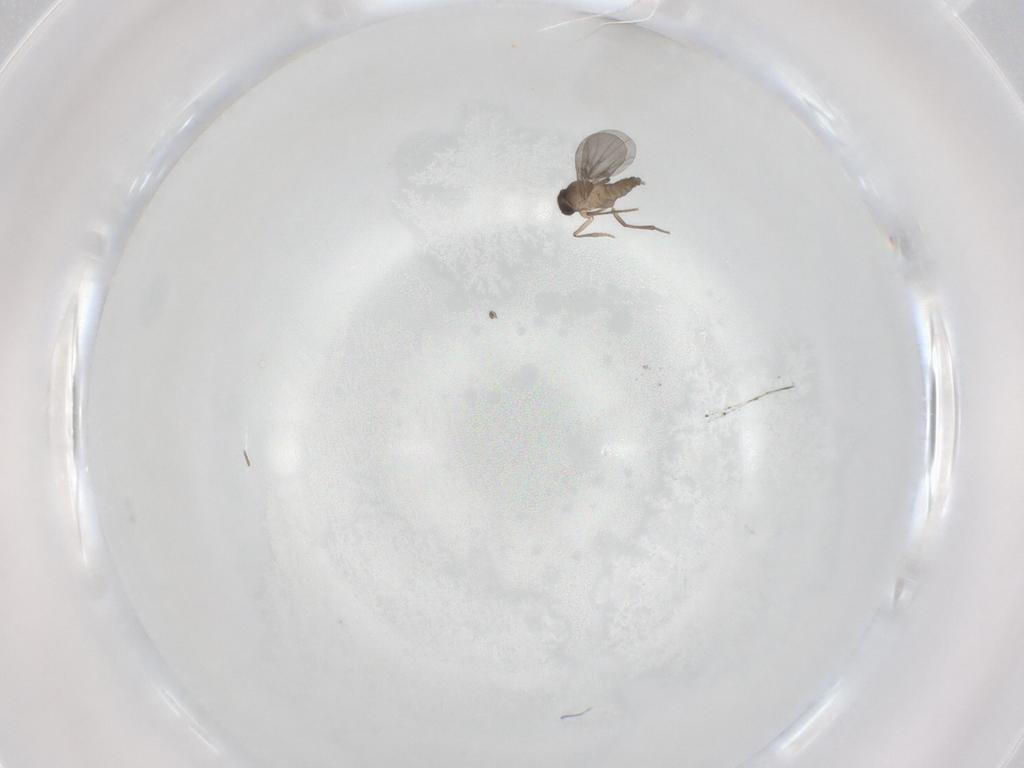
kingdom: Animalia
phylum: Arthropoda
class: Insecta
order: Diptera
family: Phoridae
